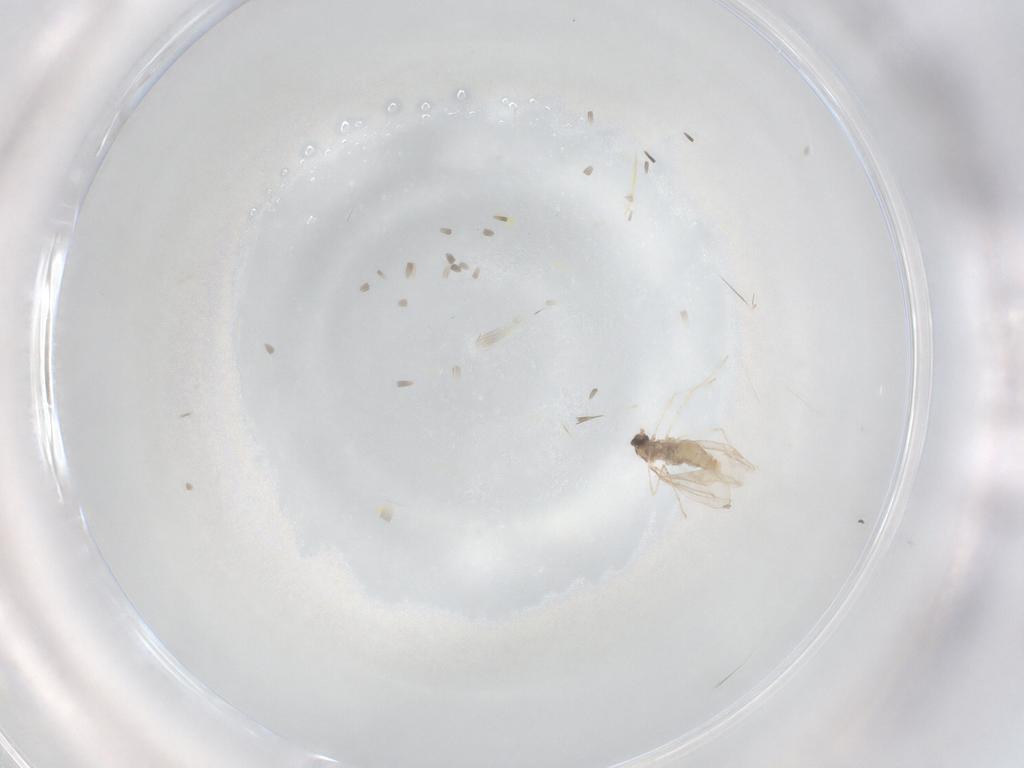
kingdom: Animalia
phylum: Arthropoda
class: Insecta
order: Diptera
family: Cecidomyiidae
